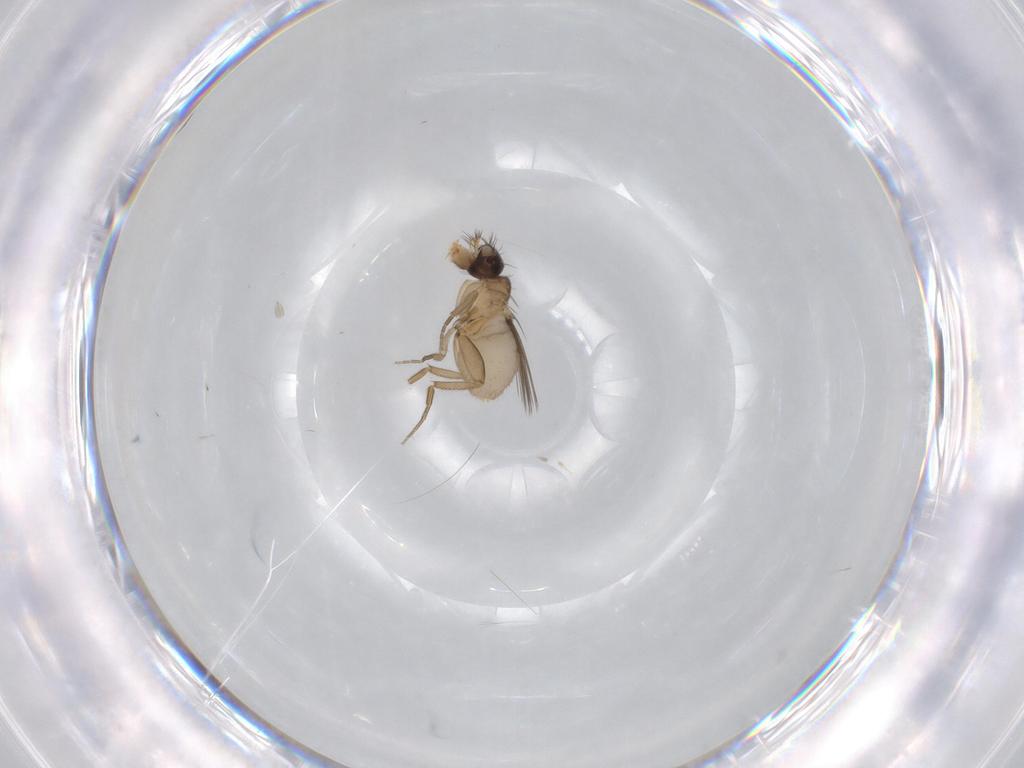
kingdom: Animalia
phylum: Arthropoda
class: Insecta
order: Diptera
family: Phoridae
